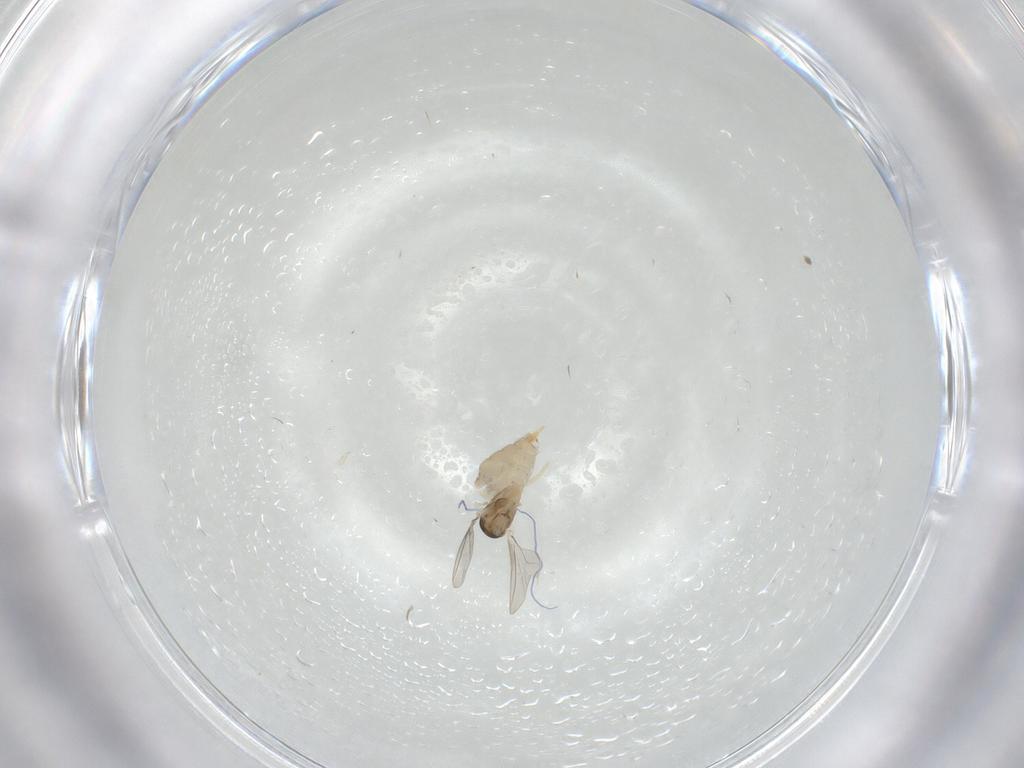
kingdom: Animalia
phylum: Arthropoda
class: Insecta
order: Diptera
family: Cecidomyiidae
